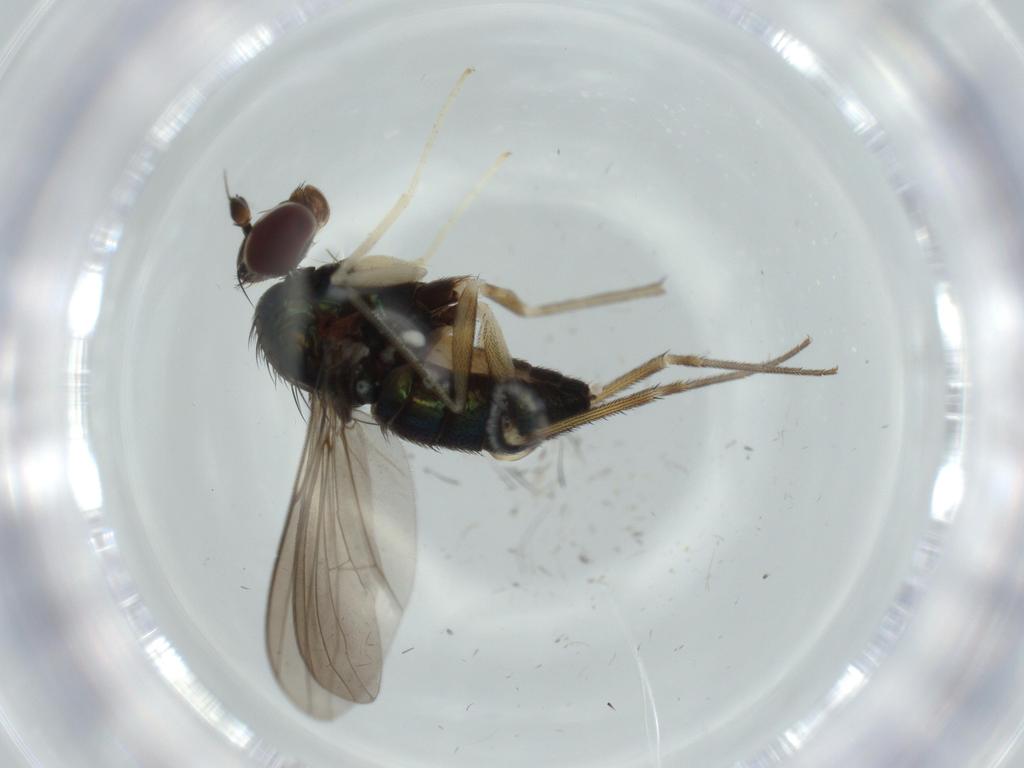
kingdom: Animalia
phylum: Arthropoda
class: Insecta
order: Diptera
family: Dolichopodidae
